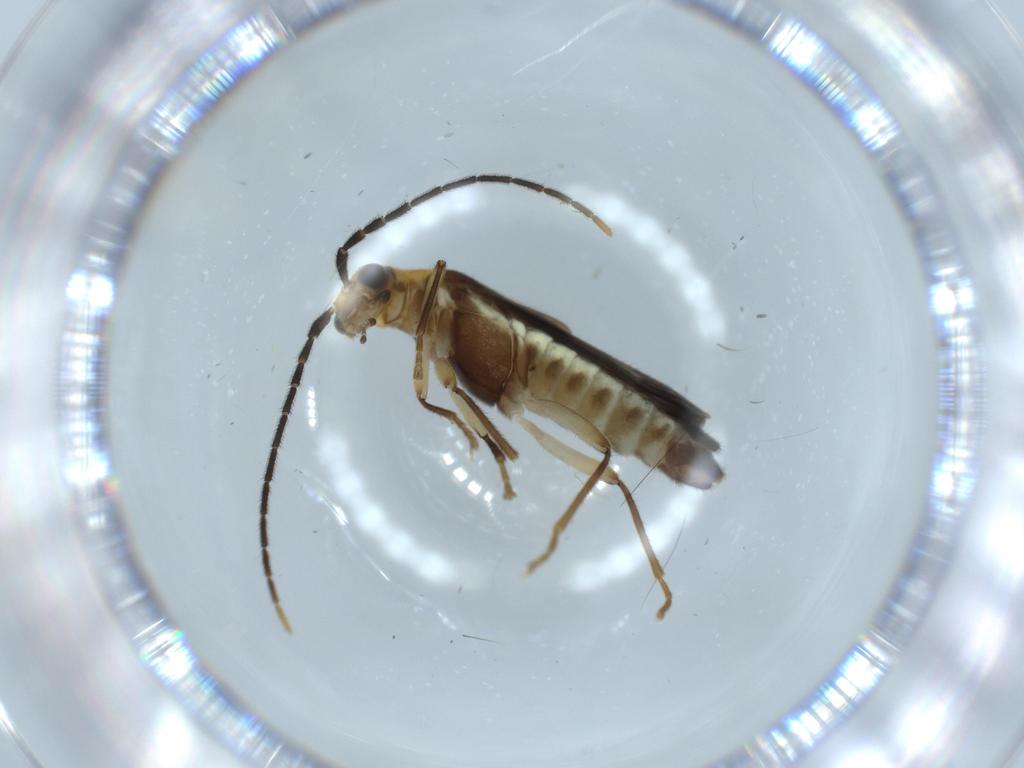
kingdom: Animalia
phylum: Arthropoda
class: Insecta
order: Coleoptera
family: Cantharidae
